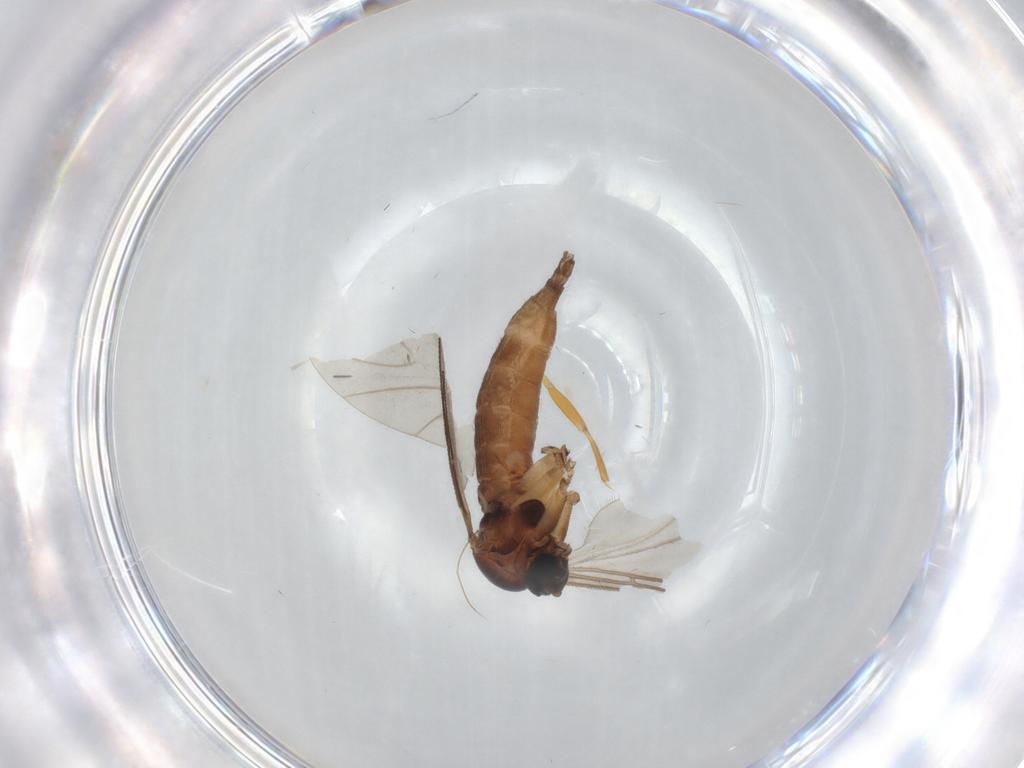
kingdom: Animalia
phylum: Arthropoda
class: Insecta
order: Diptera
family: Sciaridae
